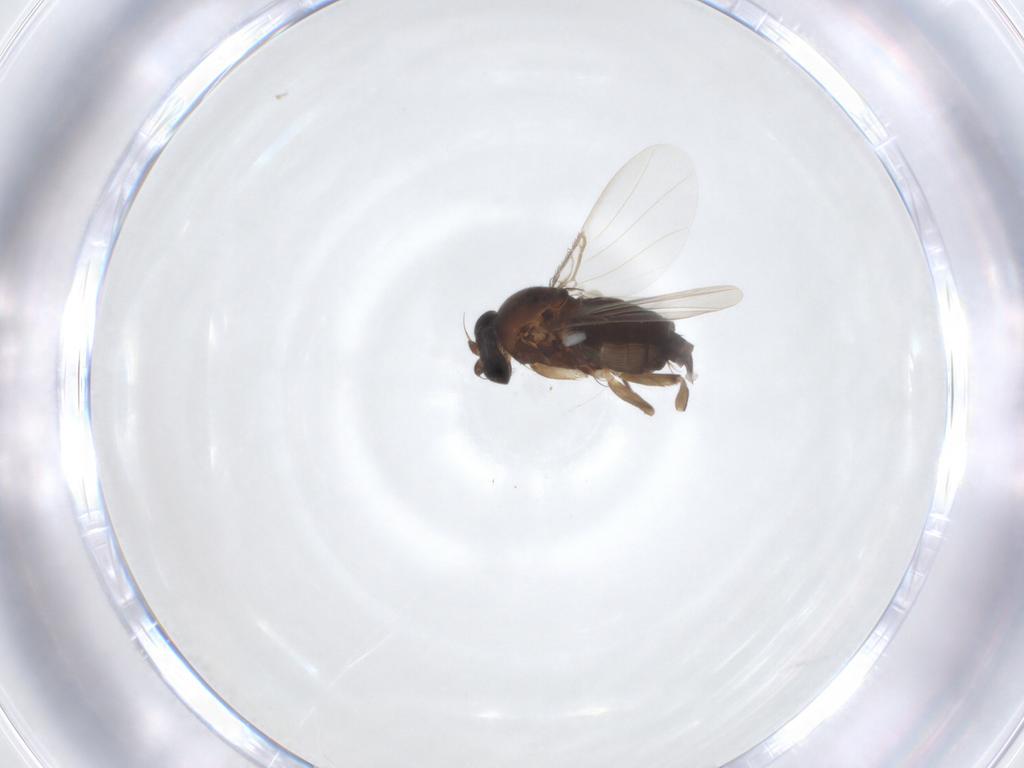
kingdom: Animalia
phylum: Arthropoda
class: Insecta
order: Diptera
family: Phoridae
